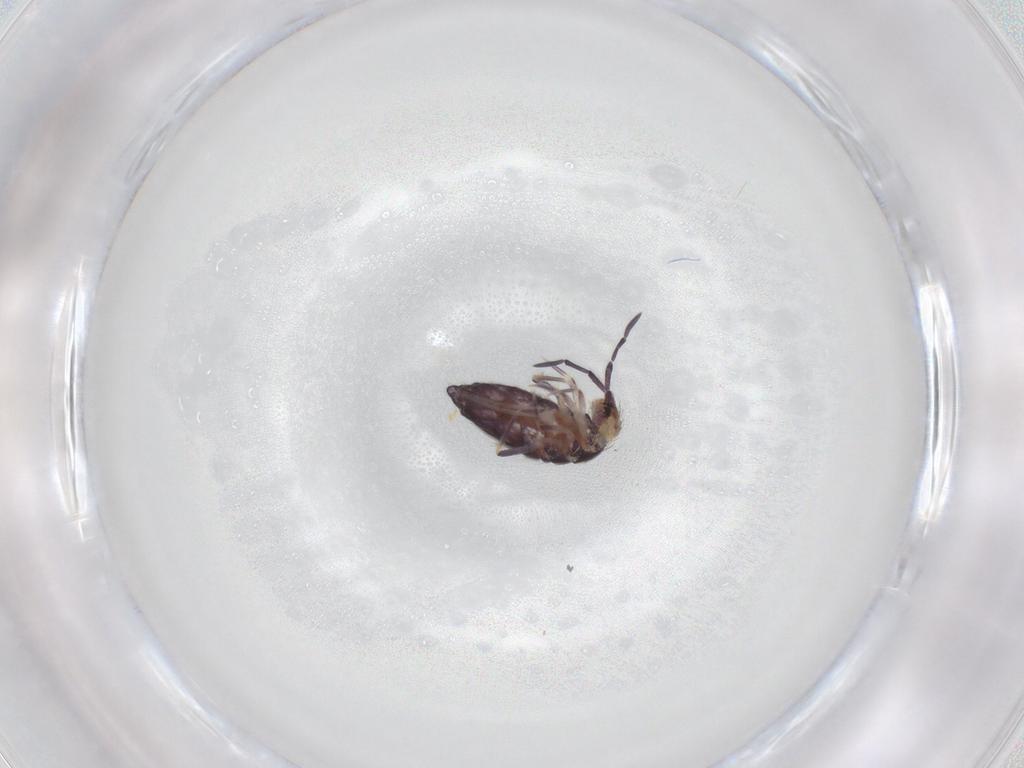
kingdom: Animalia
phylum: Arthropoda
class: Collembola
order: Entomobryomorpha
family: Entomobryidae
